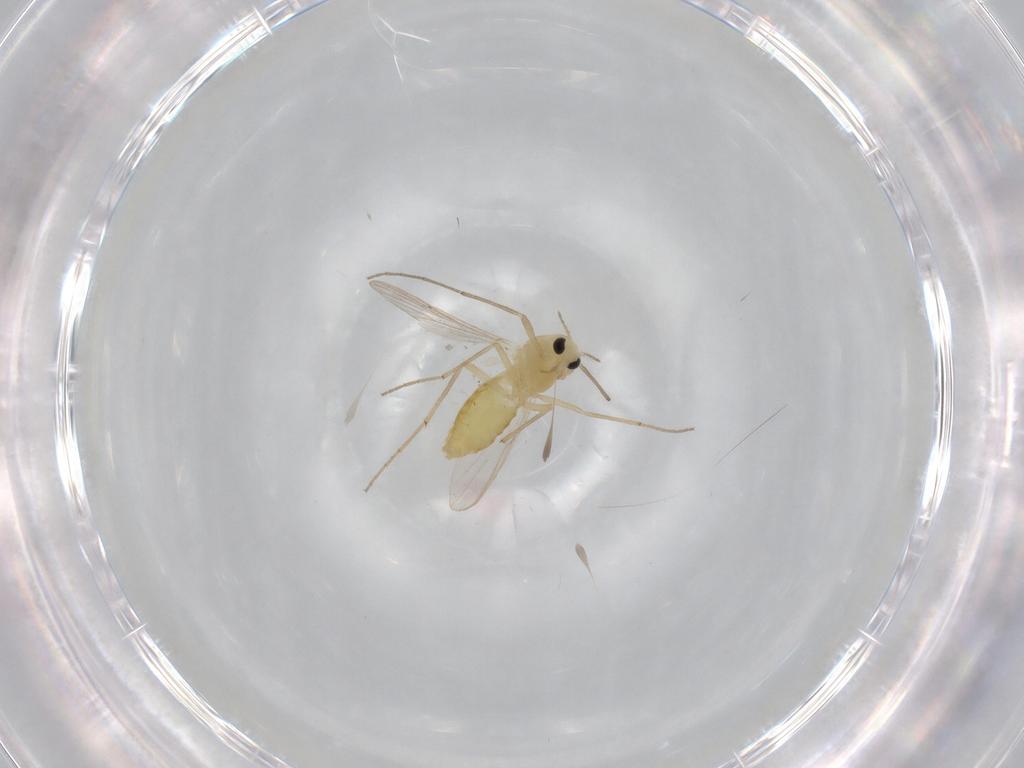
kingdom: Animalia
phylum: Arthropoda
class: Insecta
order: Diptera
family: Chironomidae
